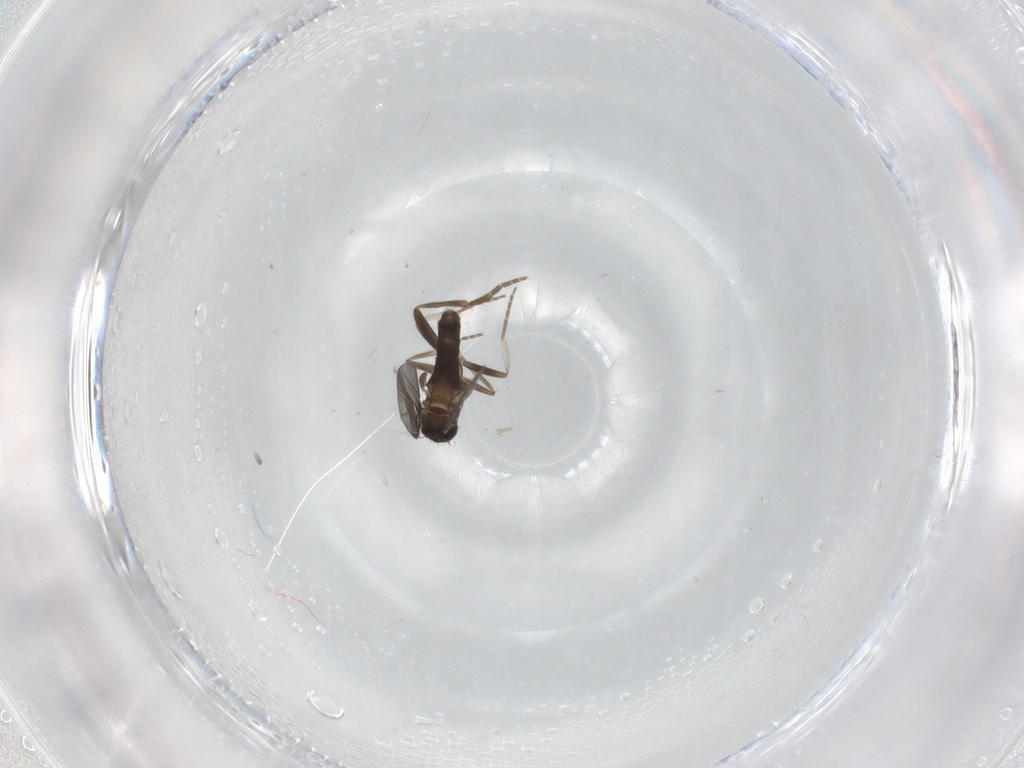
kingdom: Animalia
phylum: Arthropoda
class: Insecta
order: Diptera
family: Phoridae
